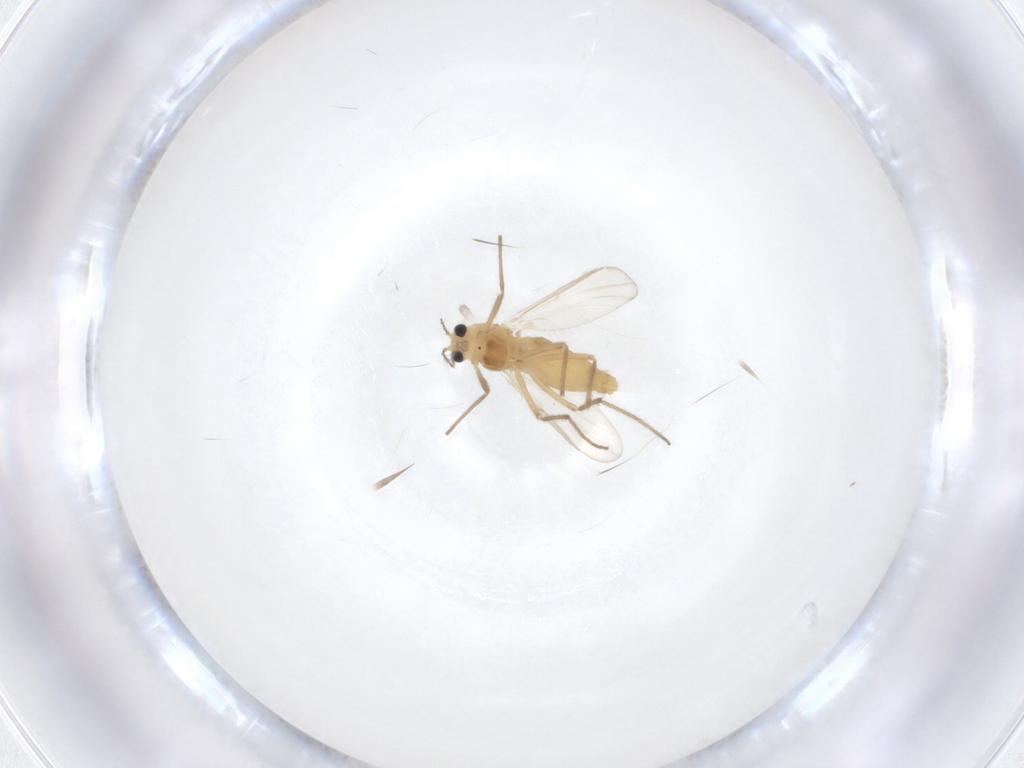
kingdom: Animalia
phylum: Arthropoda
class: Insecta
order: Diptera
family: Chironomidae
